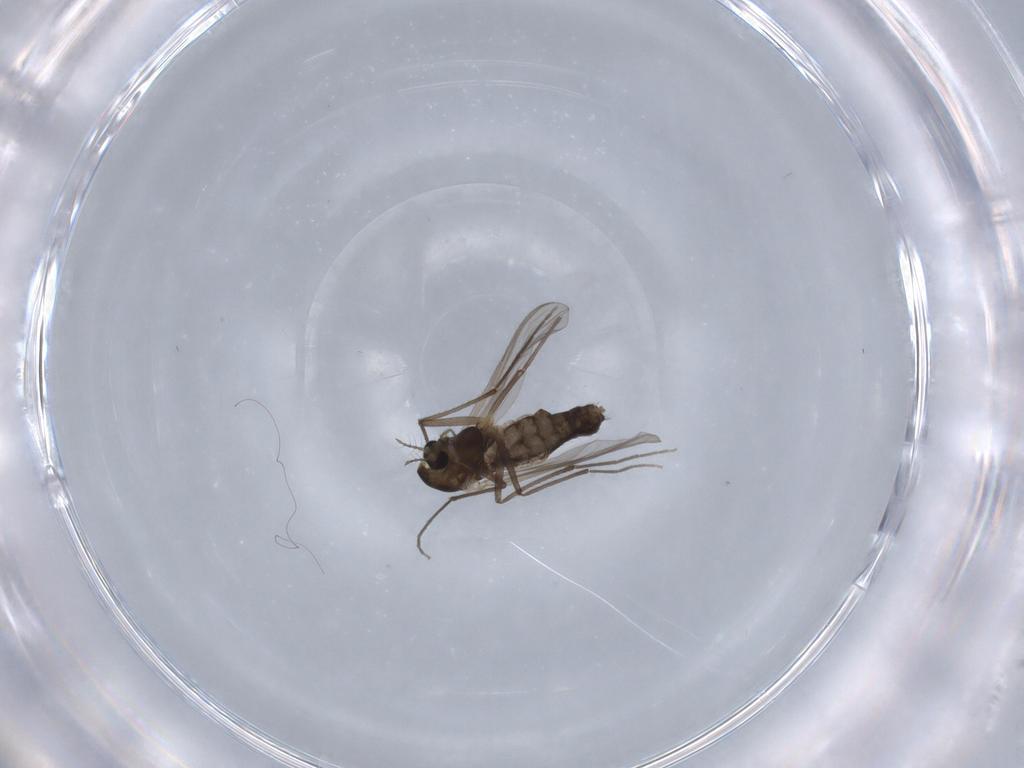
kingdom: Animalia
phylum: Arthropoda
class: Insecta
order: Diptera
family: Chironomidae
